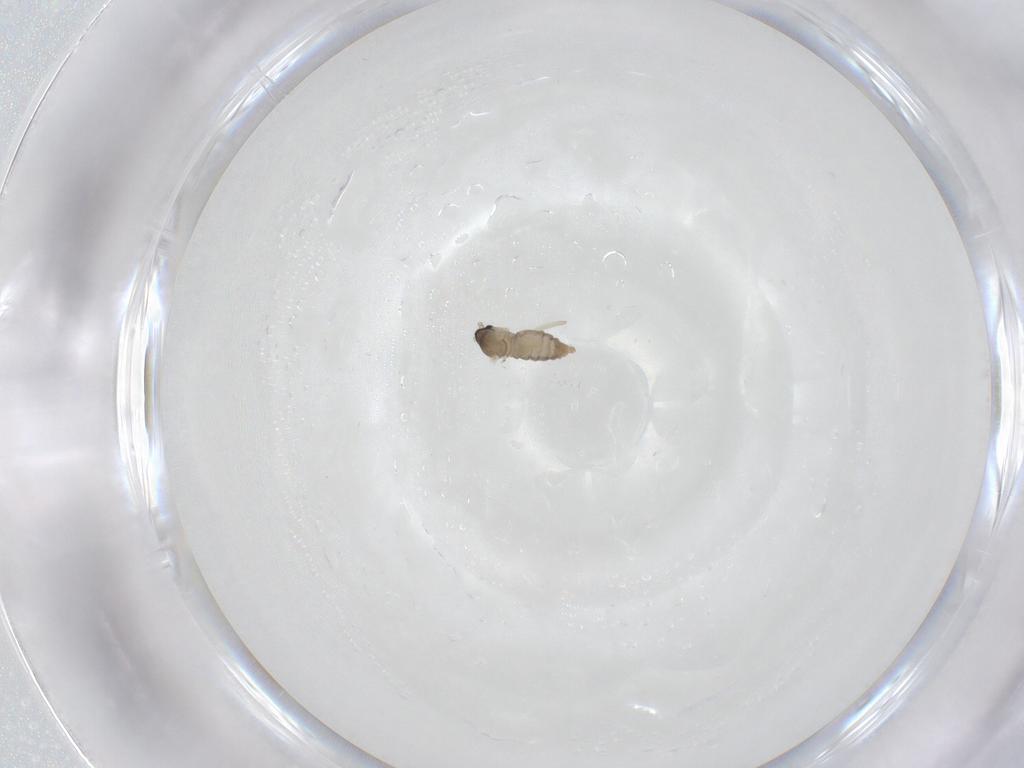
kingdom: Animalia
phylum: Arthropoda
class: Insecta
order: Diptera
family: Cecidomyiidae
